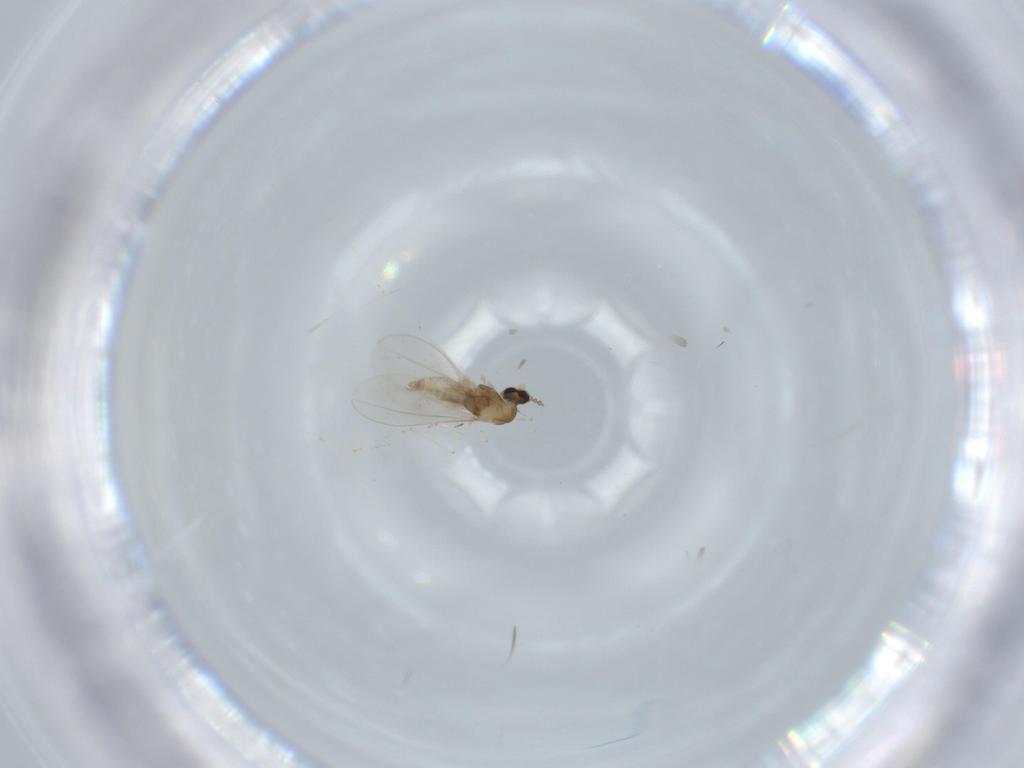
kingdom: Animalia
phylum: Arthropoda
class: Insecta
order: Diptera
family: Cecidomyiidae
